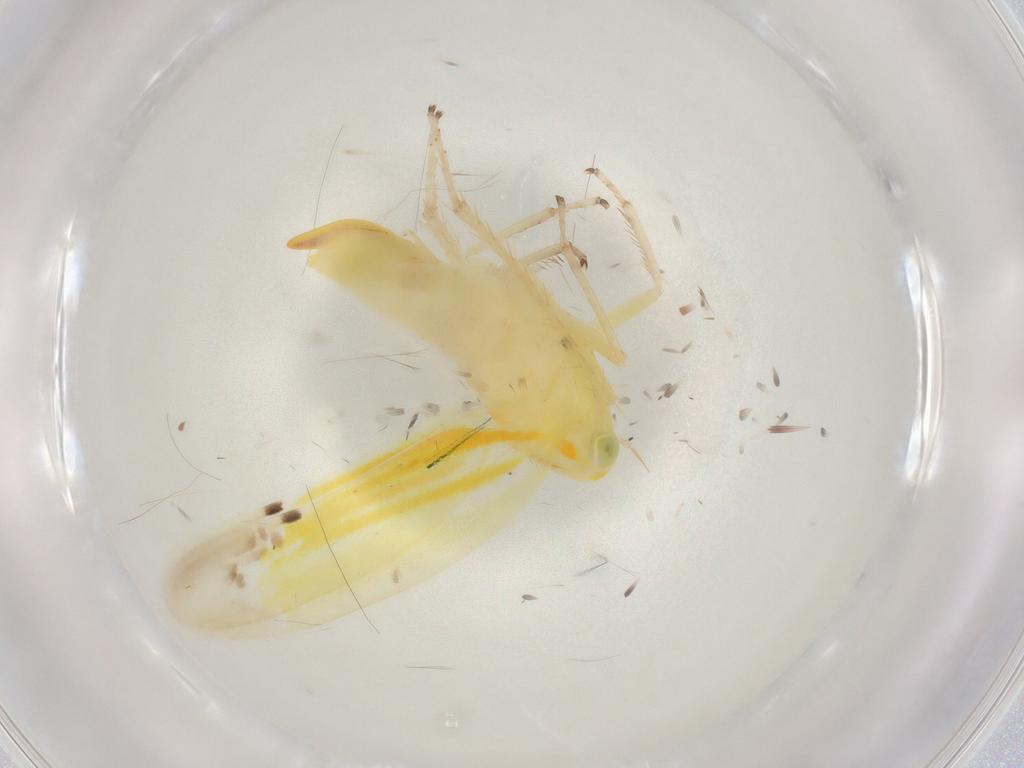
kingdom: Animalia
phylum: Arthropoda
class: Insecta
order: Hemiptera
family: Cicadellidae
